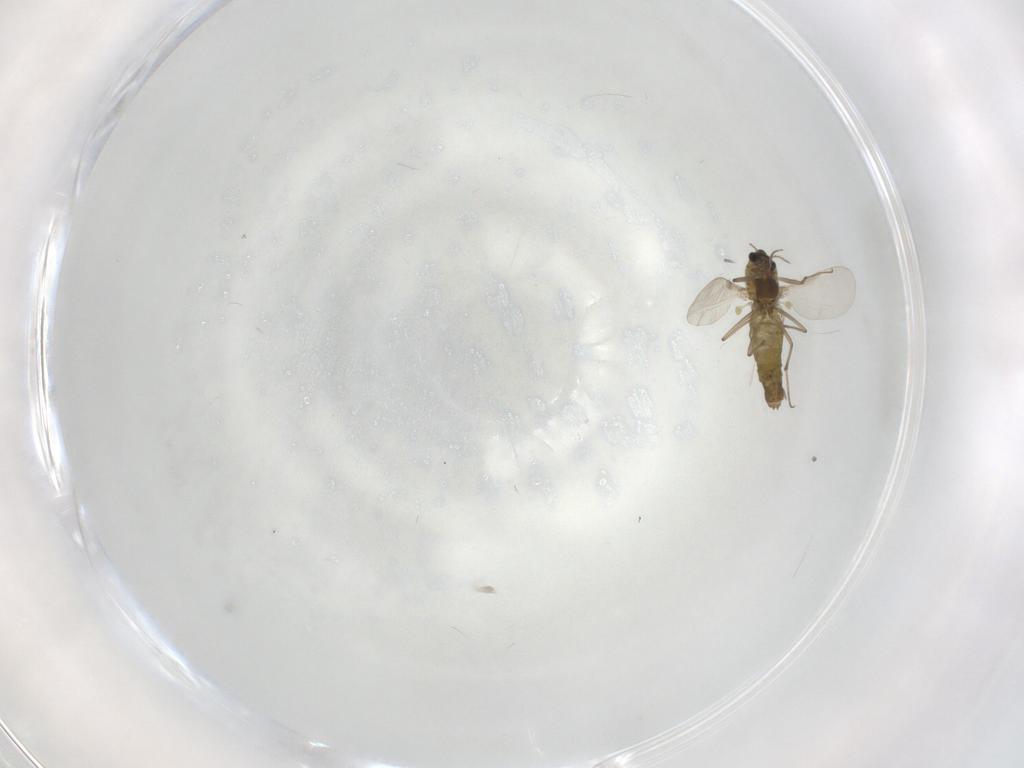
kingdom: Animalia
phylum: Arthropoda
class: Insecta
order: Diptera
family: Chironomidae
